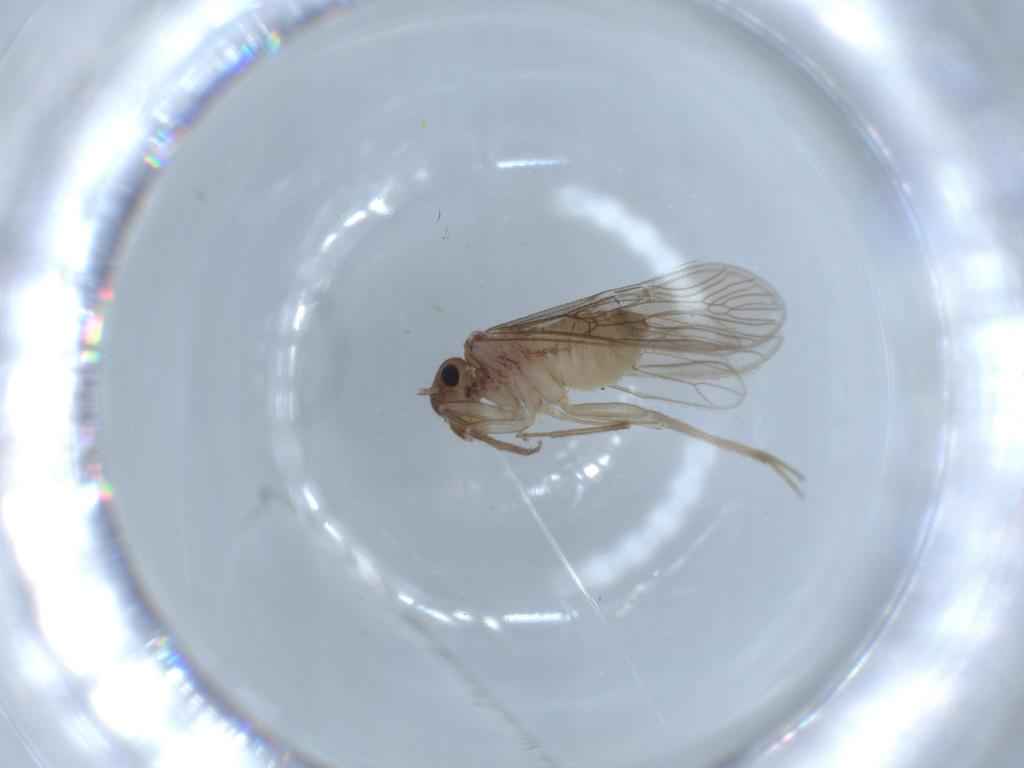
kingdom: Animalia
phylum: Arthropoda
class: Insecta
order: Psocodea
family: Cladiopsocidae
